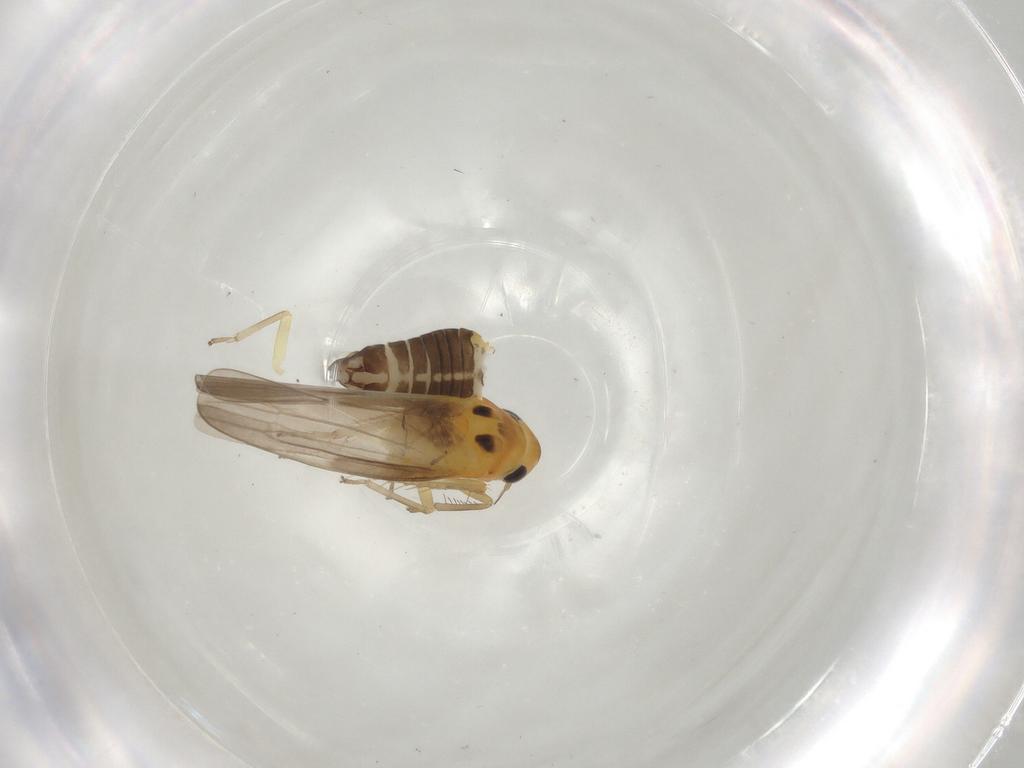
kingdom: Animalia
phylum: Arthropoda
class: Insecta
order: Hemiptera
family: Cicadellidae
